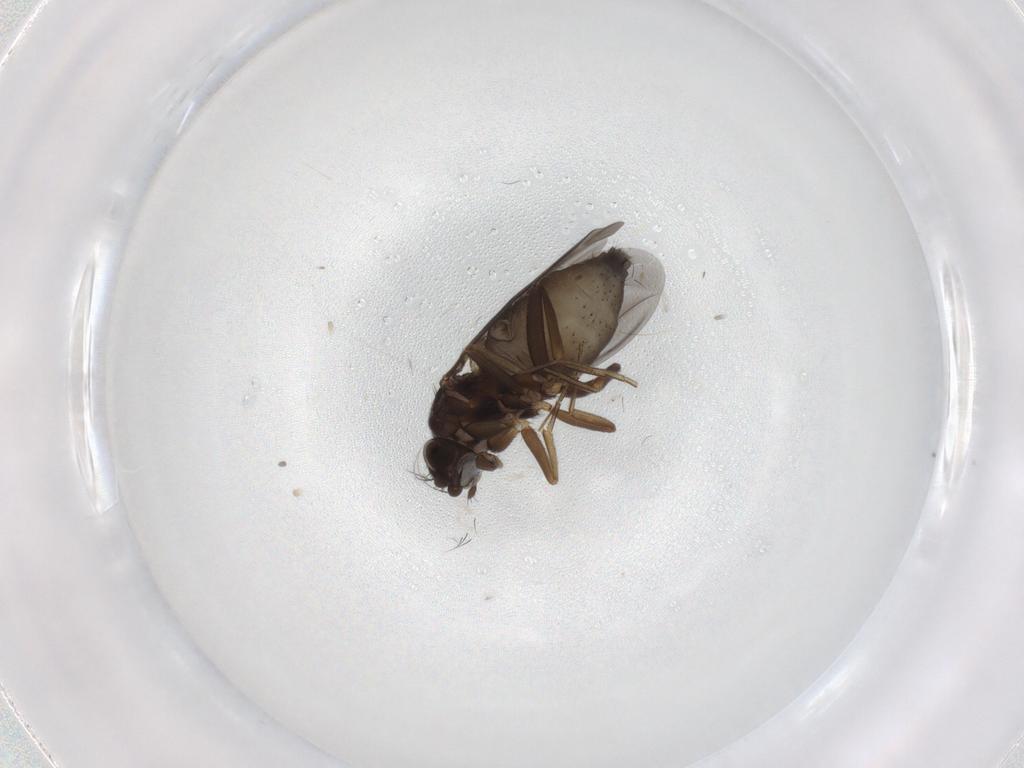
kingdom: Animalia
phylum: Arthropoda
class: Insecta
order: Diptera
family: Phoridae
